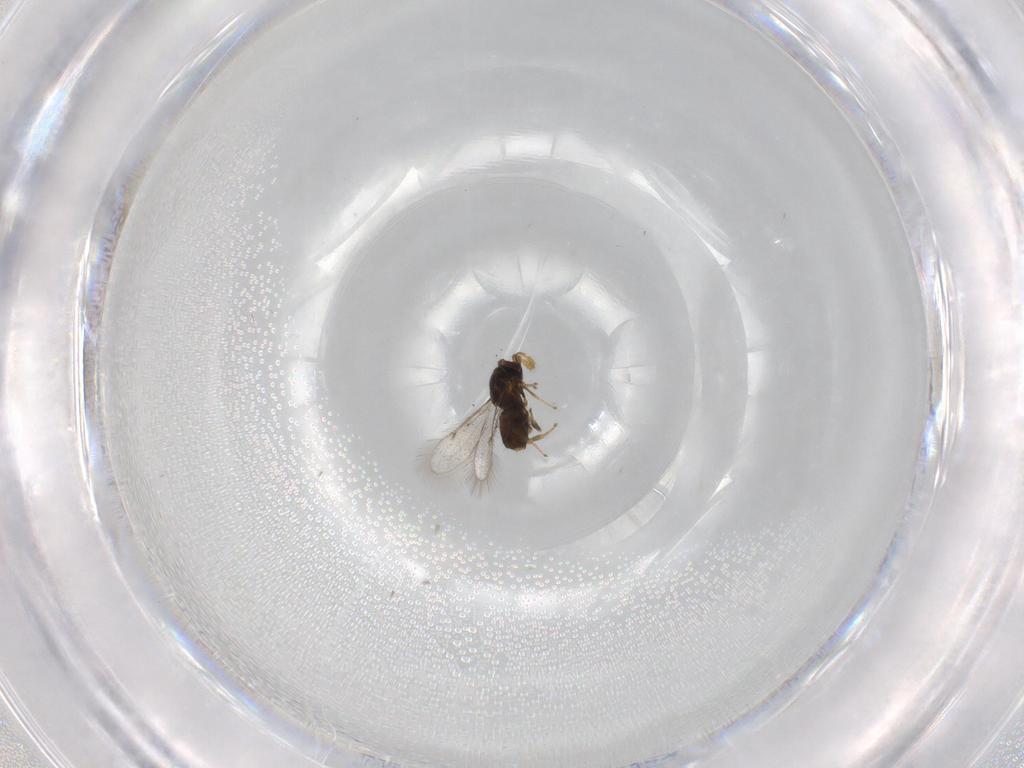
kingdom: Animalia
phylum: Arthropoda
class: Insecta
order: Hymenoptera
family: Eulophidae
